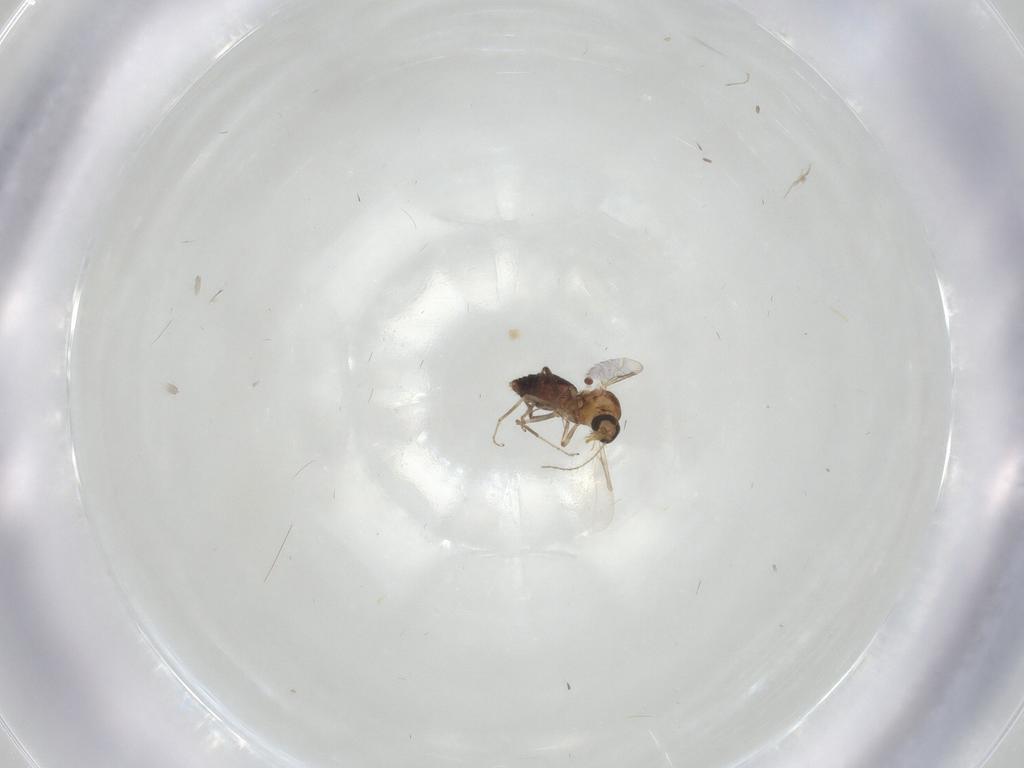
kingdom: Animalia
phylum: Arthropoda
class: Insecta
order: Diptera
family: Ceratopogonidae
